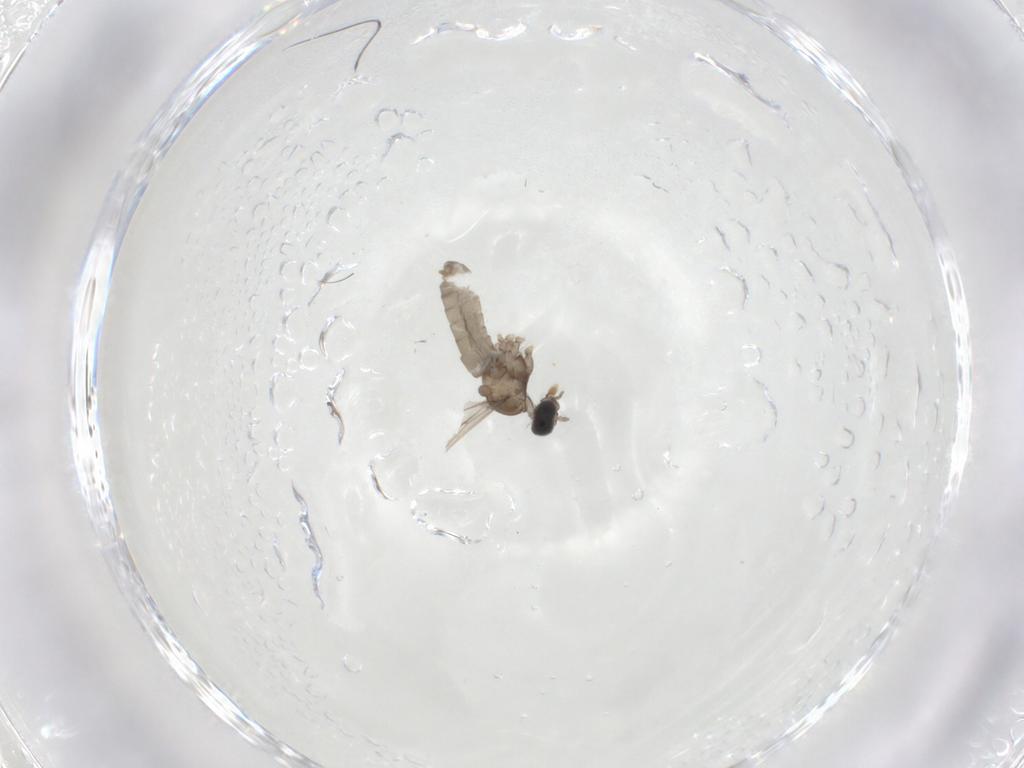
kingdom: Animalia
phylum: Arthropoda
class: Insecta
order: Diptera
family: Cecidomyiidae
